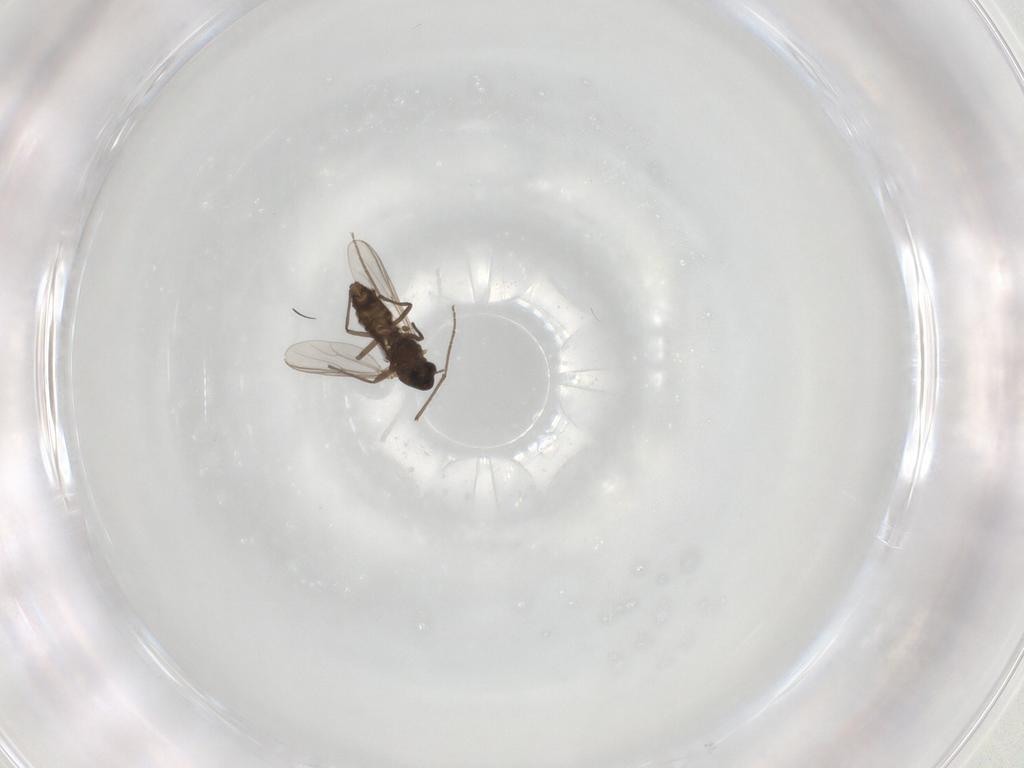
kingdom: Animalia
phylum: Arthropoda
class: Insecta
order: Diptera
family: Chironomidae
